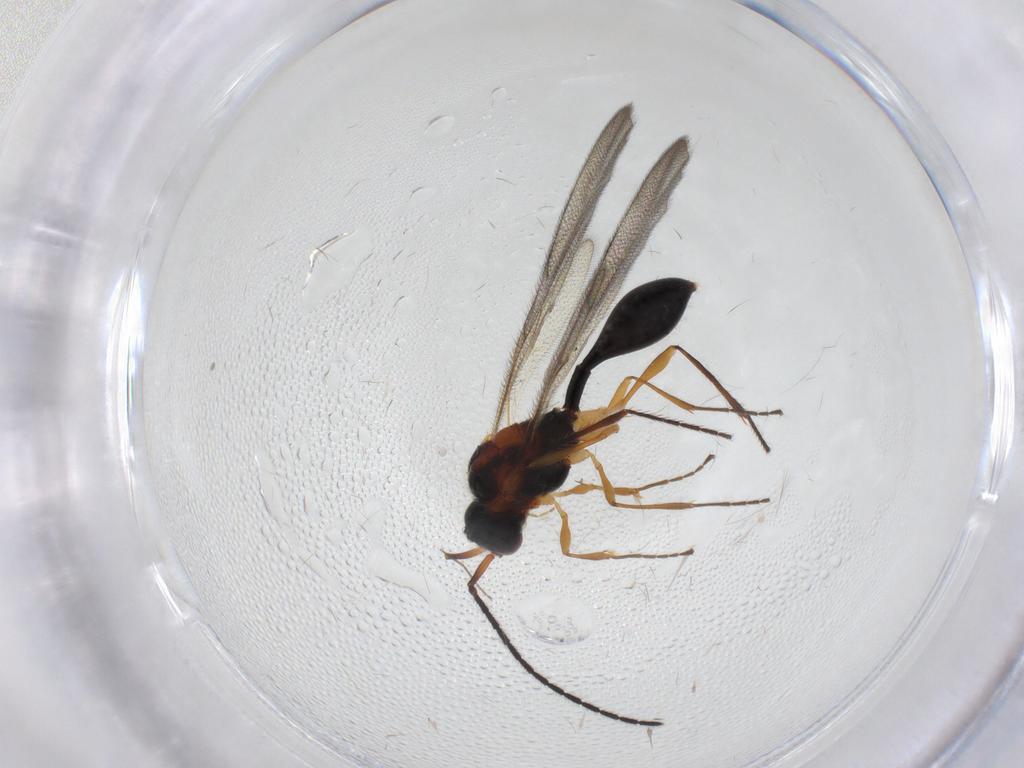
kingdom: Animalia
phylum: Arthropoda
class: Insecta
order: Hymenoptera
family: Diapriidae
